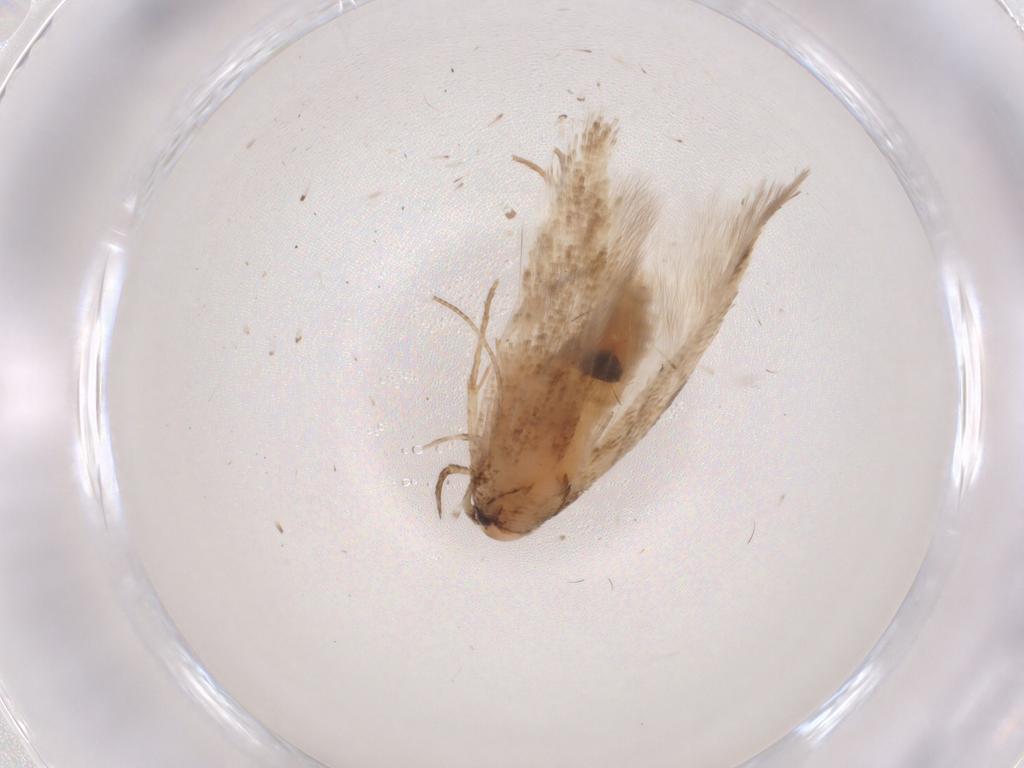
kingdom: Animalia
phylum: Arthropoda
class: Insecta
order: Lepidoptera
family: Cosmopterigidae
